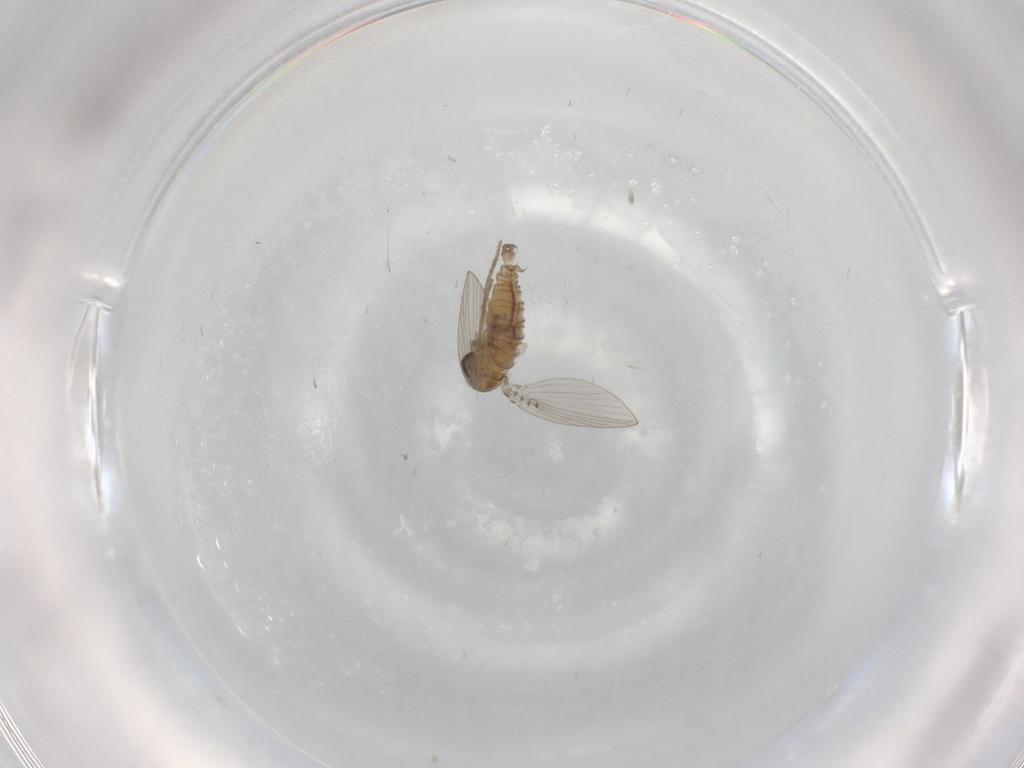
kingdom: Animalia
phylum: Arthropoda
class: Insecta
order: Diptera
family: Psychodidae
